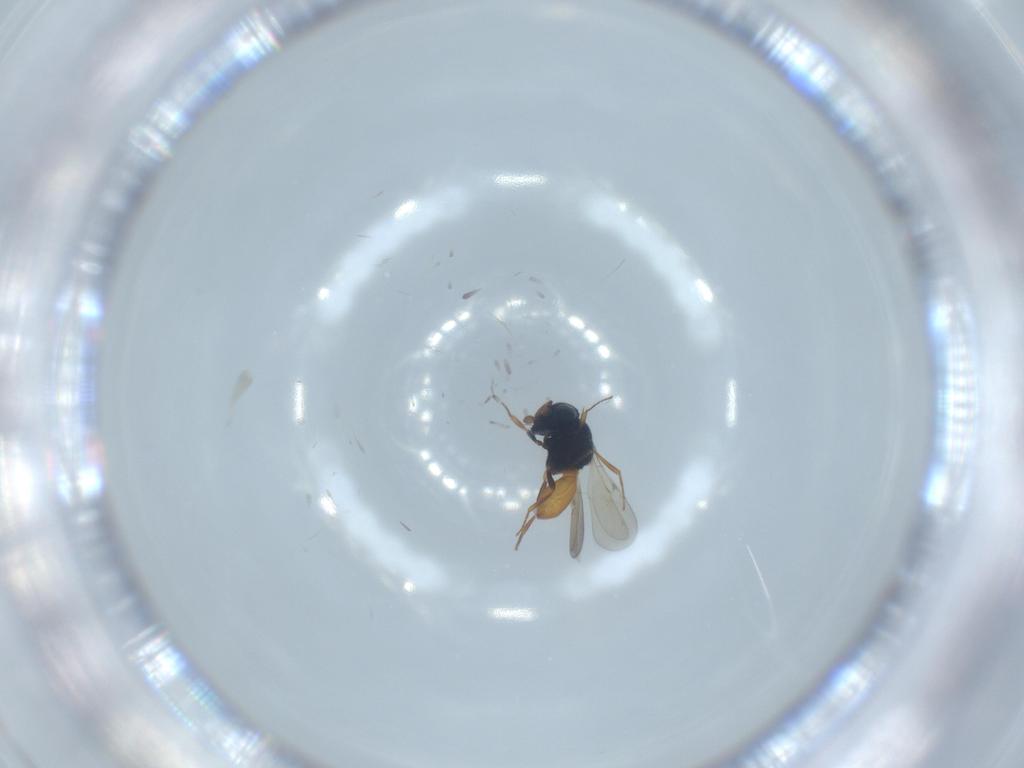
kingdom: Animalia
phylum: Arthropoda
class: Insecta
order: Hymenoptera
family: Scelionidae
